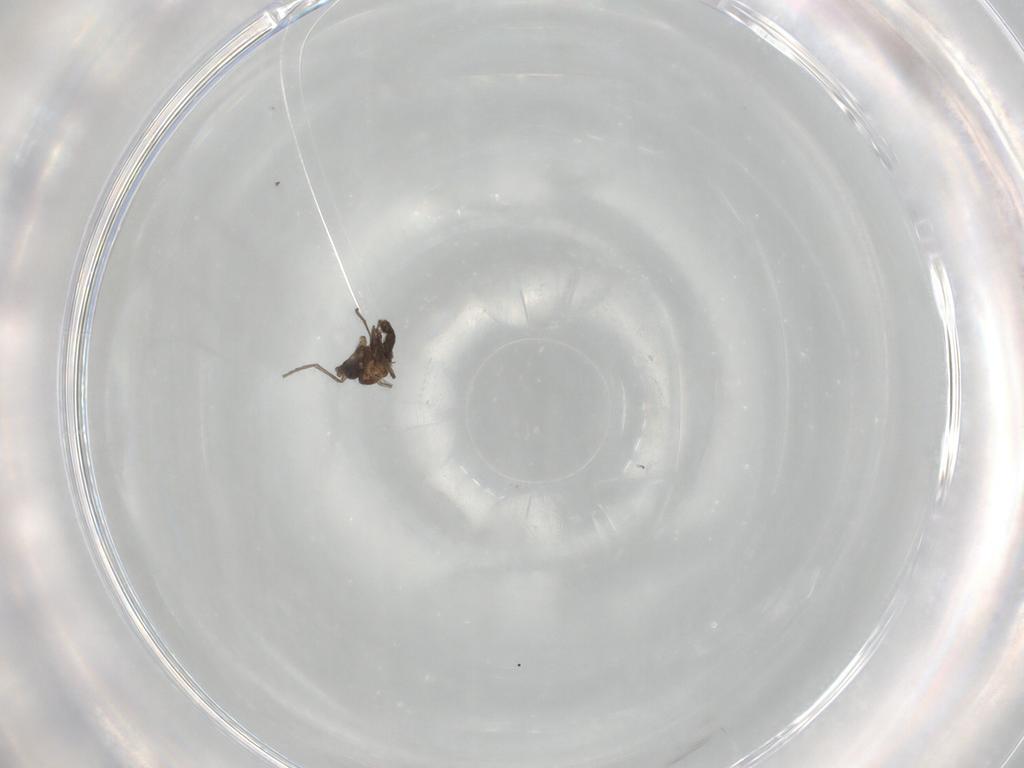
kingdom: Animalia
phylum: Arthropoda
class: Insecta
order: Diptera
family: Sciaridae
